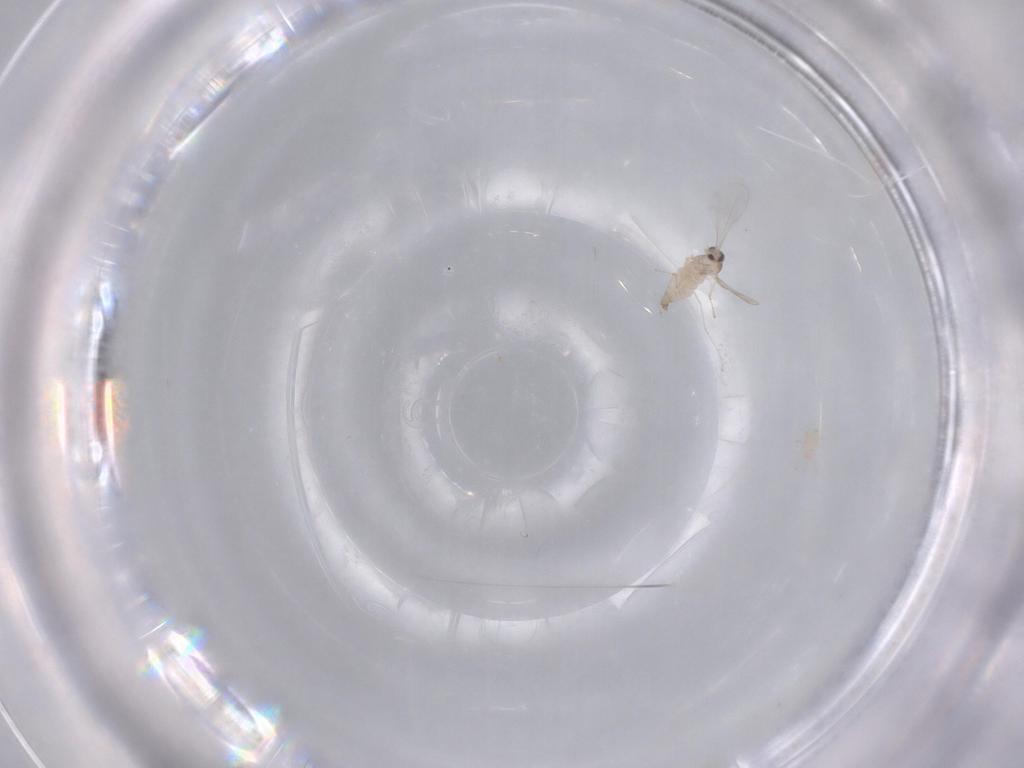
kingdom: Animalia
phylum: Arthropoda
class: Insecta
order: Diptera
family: Cecidomyiidae
